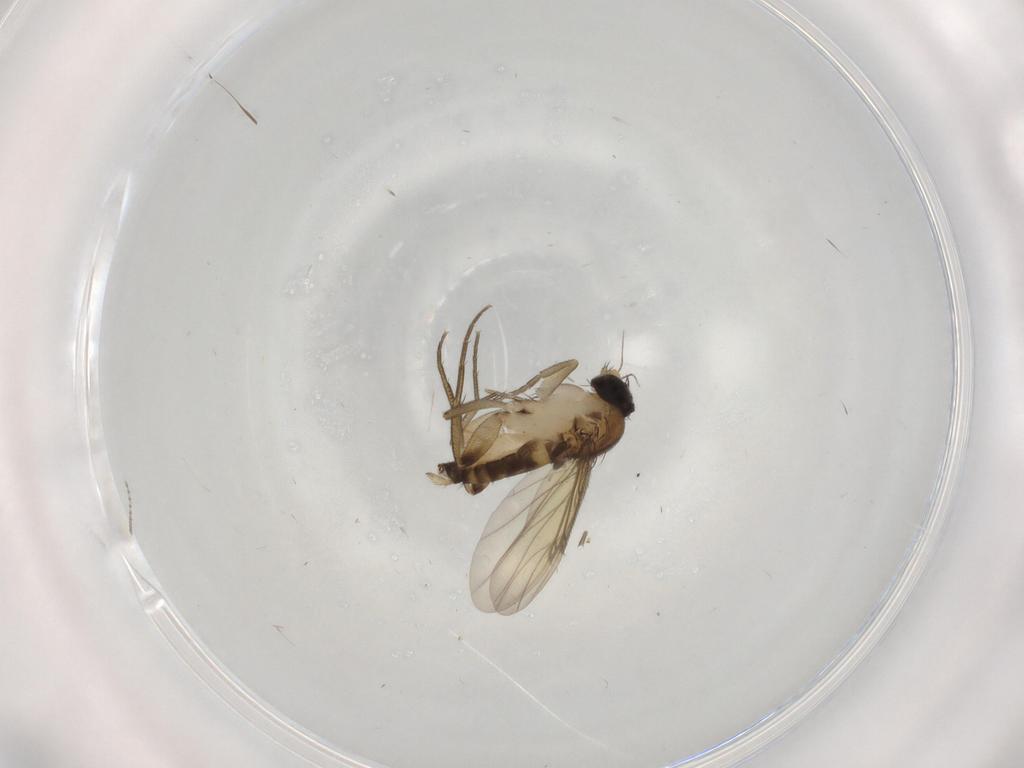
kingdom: Animalia
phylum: Arthropoda
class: Insecta
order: Diptera
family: Phoridae
